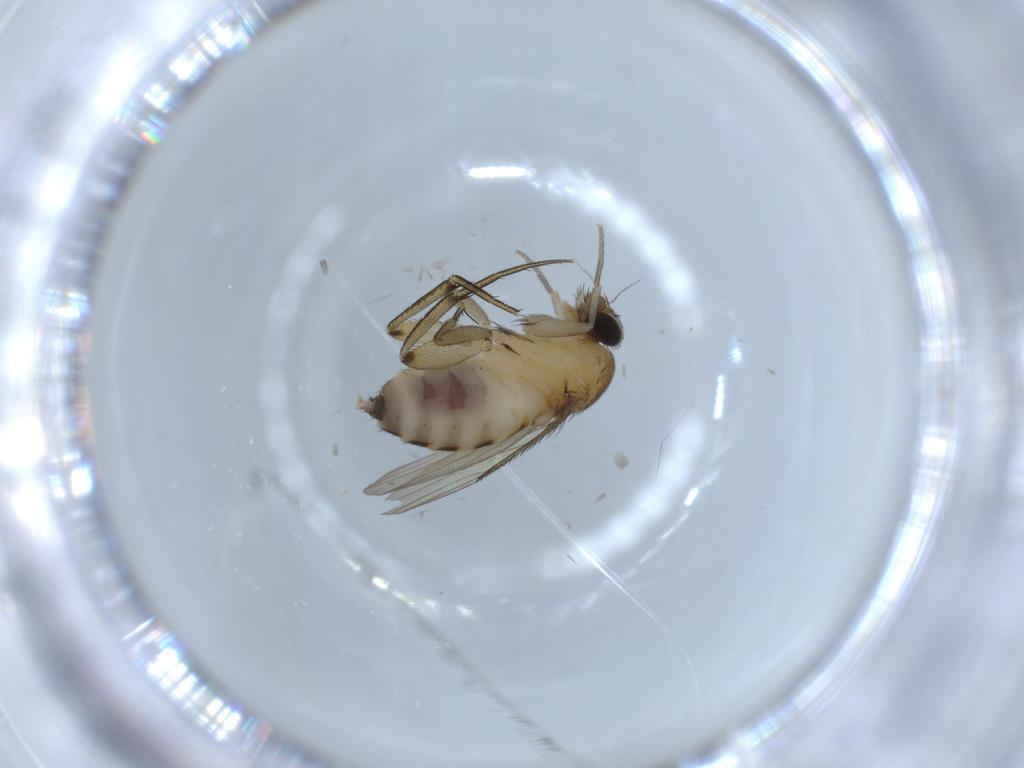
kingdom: Animalia
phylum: Arthropoda
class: Insecta
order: Diptera
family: Phoridae
